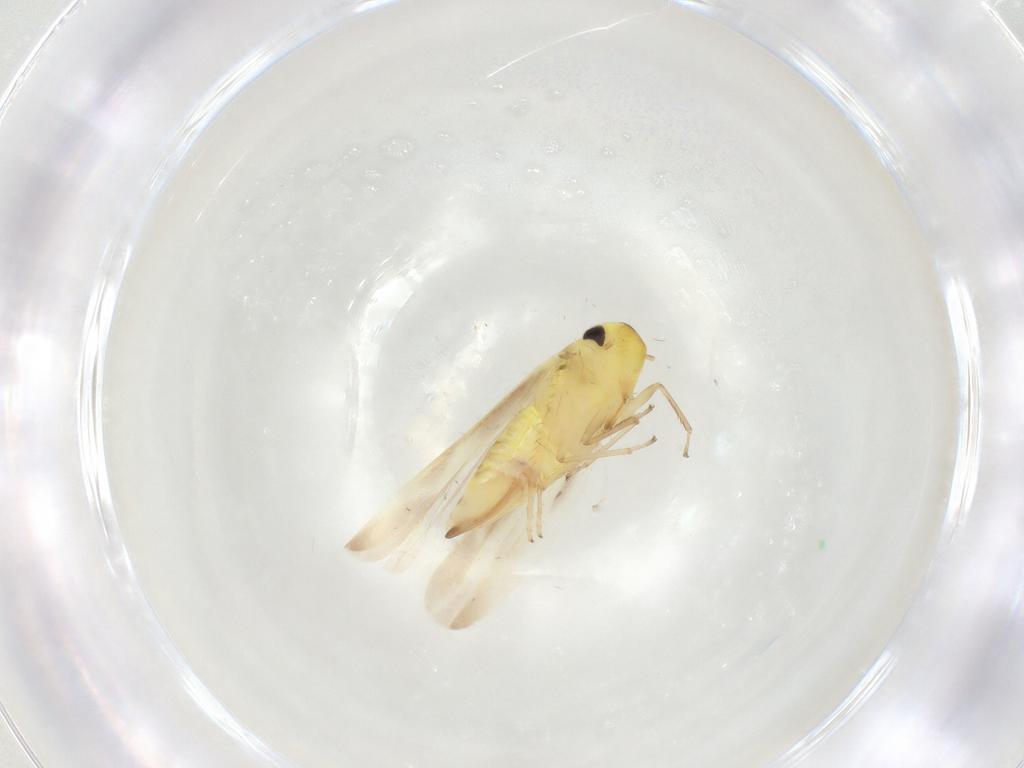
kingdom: Animalia
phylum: Arthropoda
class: Insecta
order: Hemiptera
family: Cicadellidae
